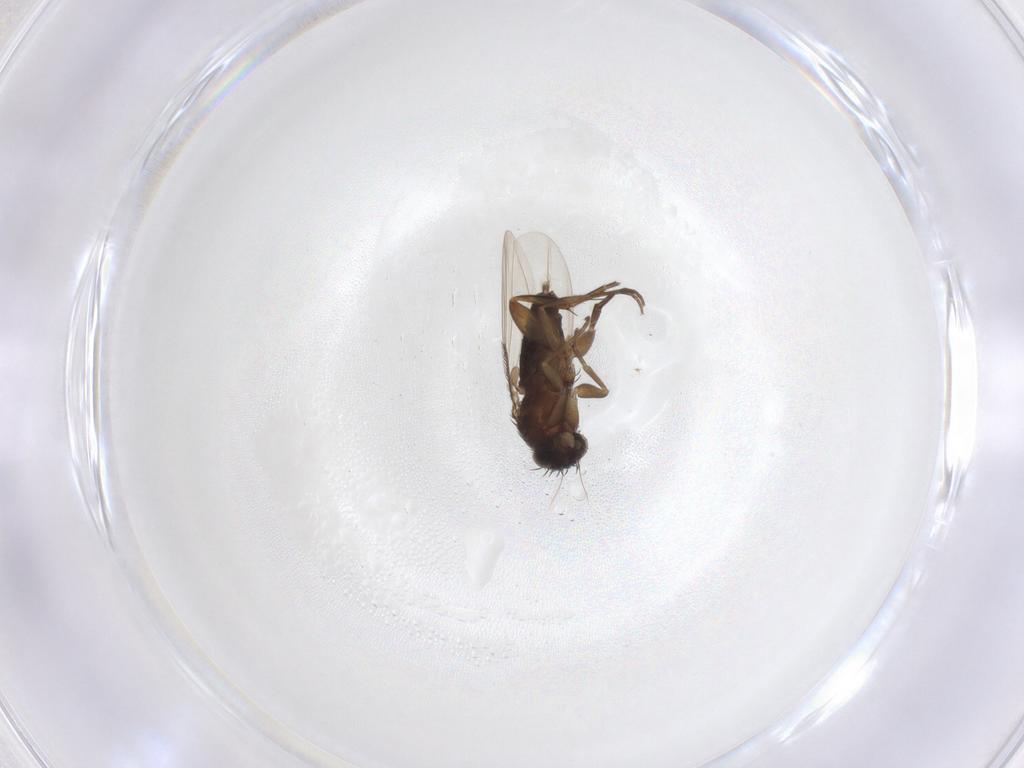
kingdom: Animalia
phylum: Arthropoda
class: Insecta
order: Diptera
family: Phoridae
